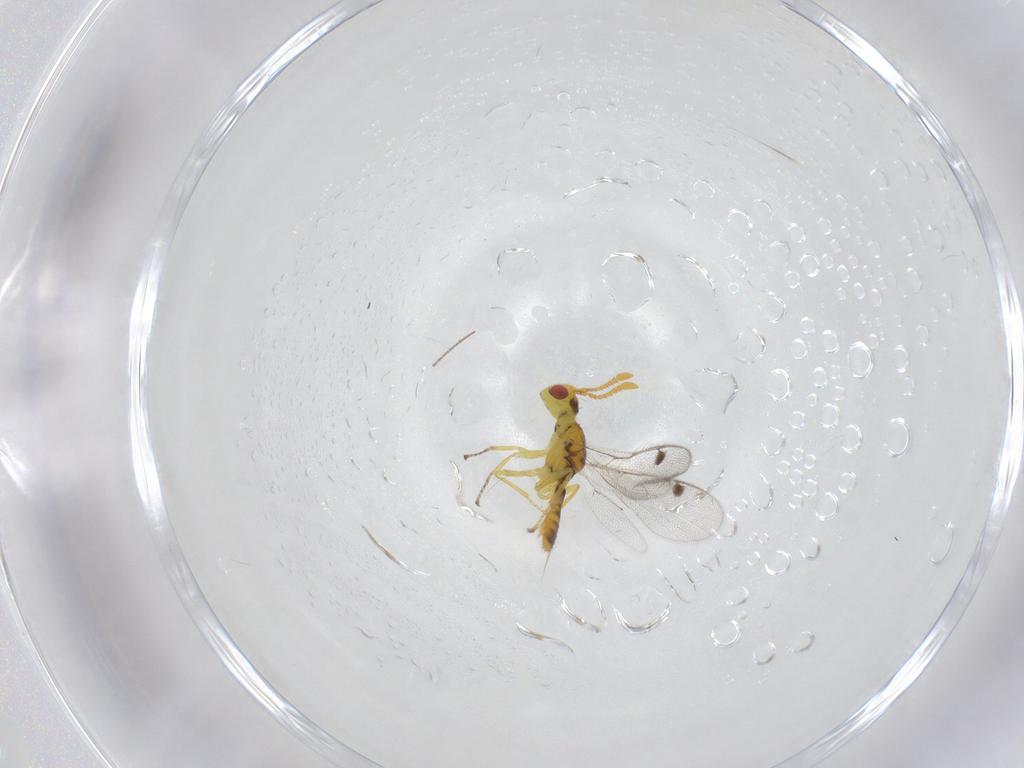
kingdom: Animalia
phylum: Arthropoda
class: Insecta
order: Hymenoptera
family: Megastigmidae
